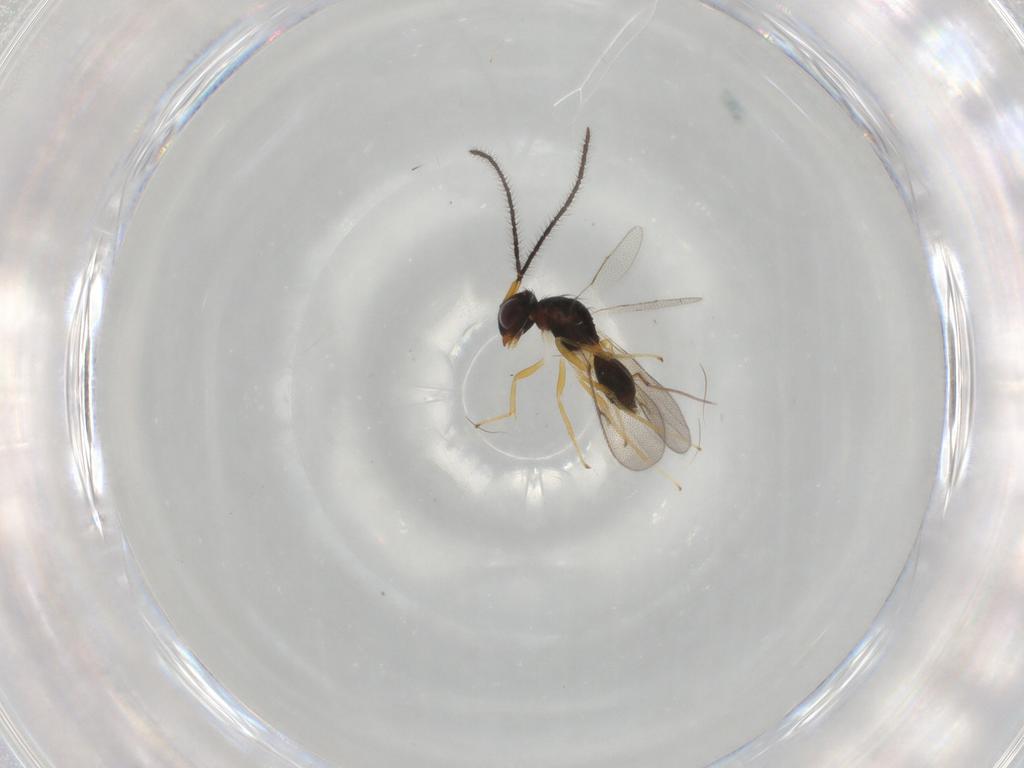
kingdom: Animalia
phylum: Arthropoda
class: Insecta
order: Hymenoptera
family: Diparidae
